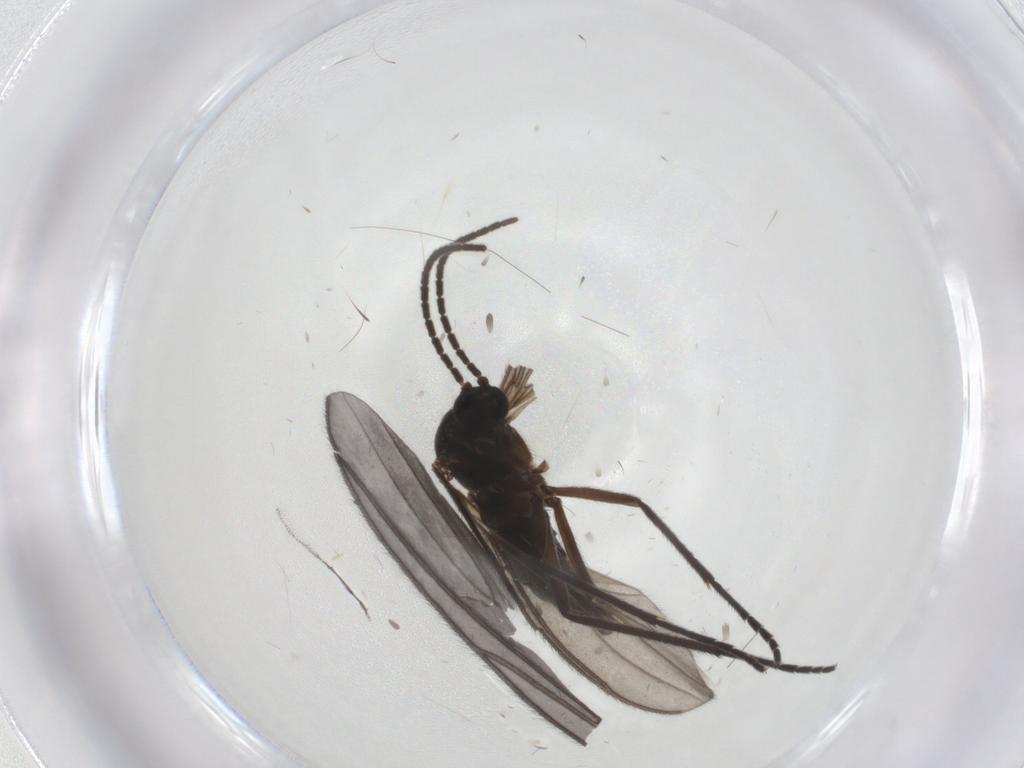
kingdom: Animalia
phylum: Arthropoda
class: Insecta
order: Diptera
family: Sciaridae
